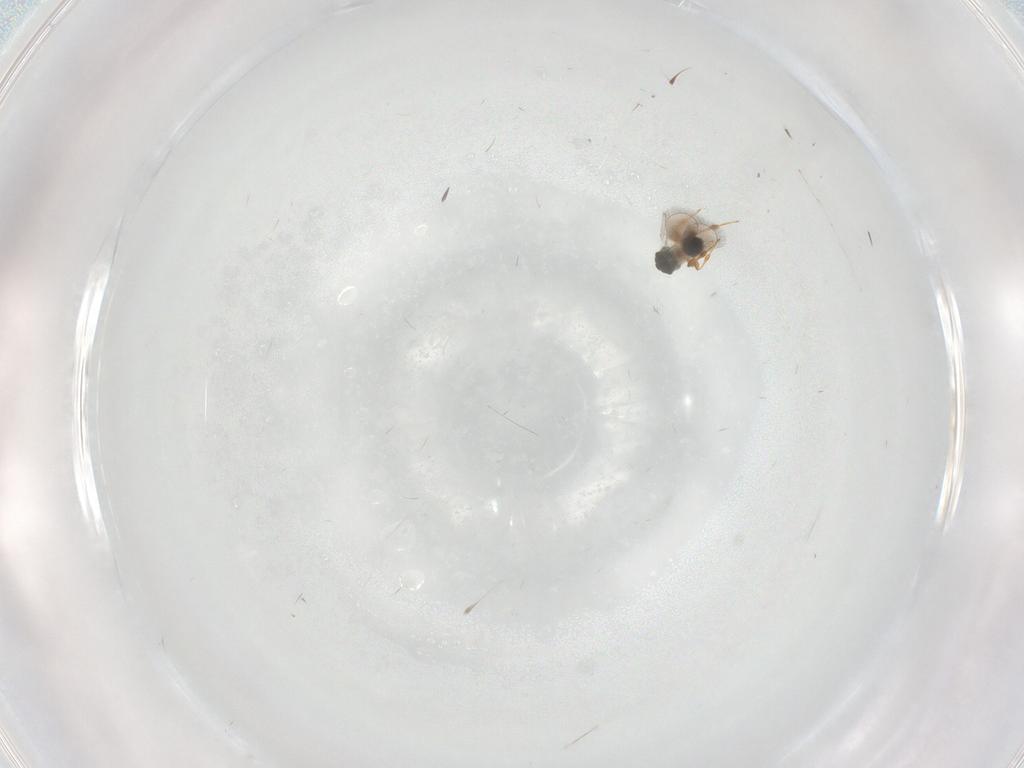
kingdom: Animalia
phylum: Arthropoda
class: Insecta
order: Hymenoptera
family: Platygastridae
